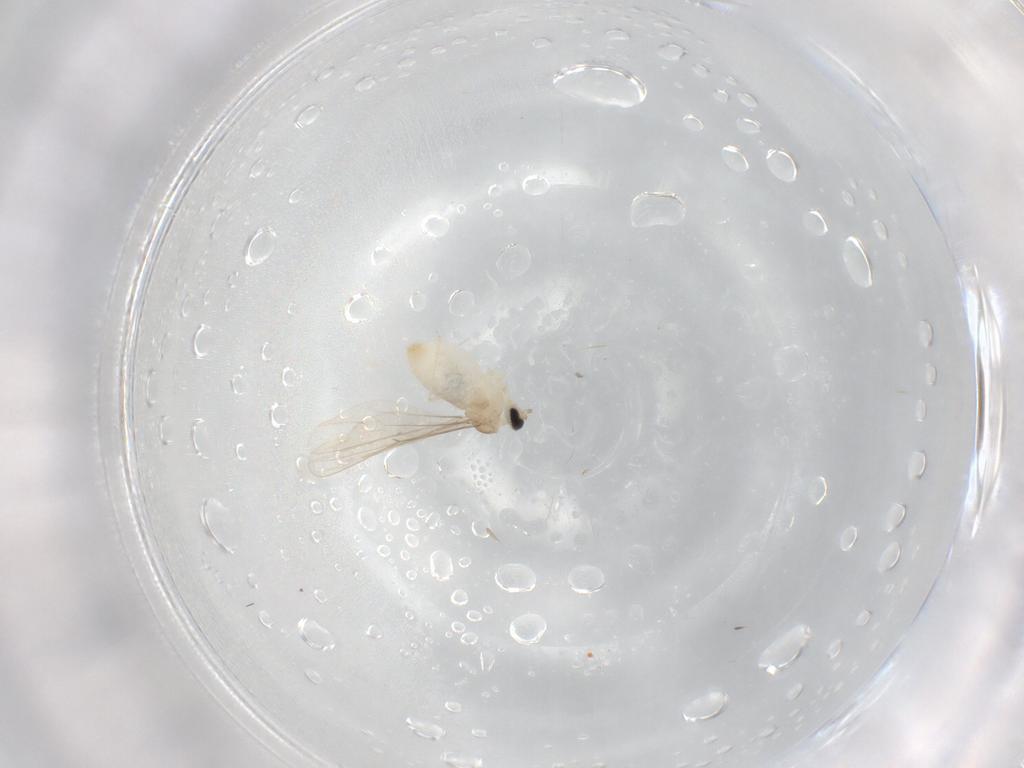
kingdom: Animalia
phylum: Arthropoda
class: Insecta
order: Diptera
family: Cecidomyiidae
